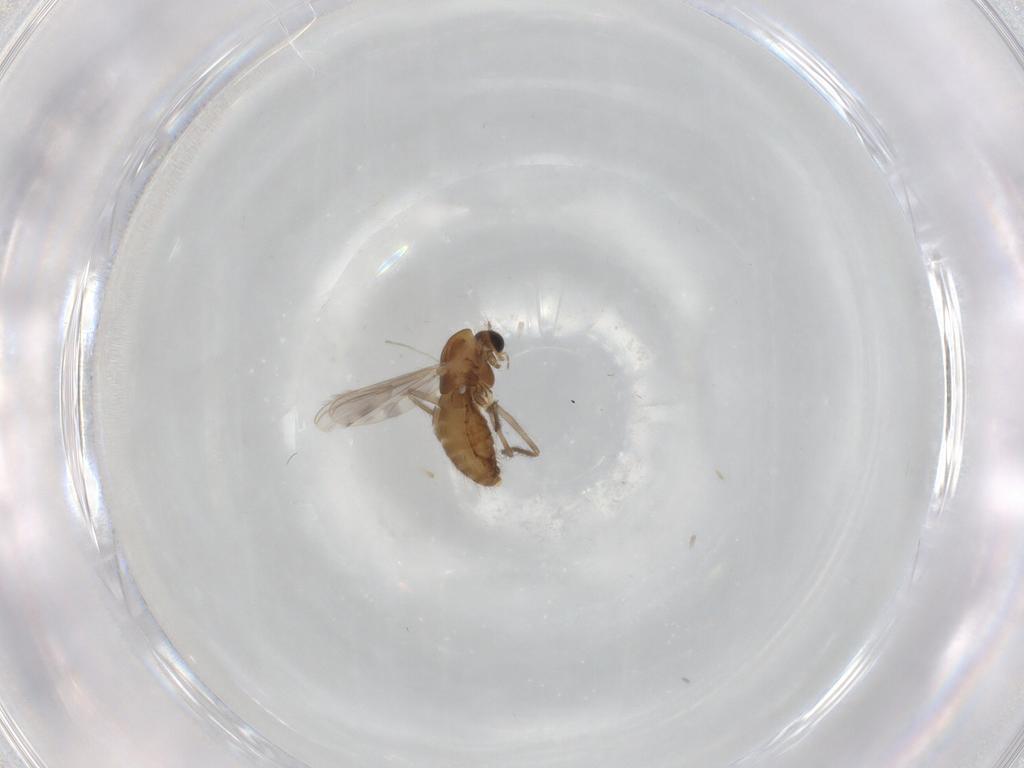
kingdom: Animalia
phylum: Arthropoda
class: Insecta
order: Diptera
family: Chironomidae
